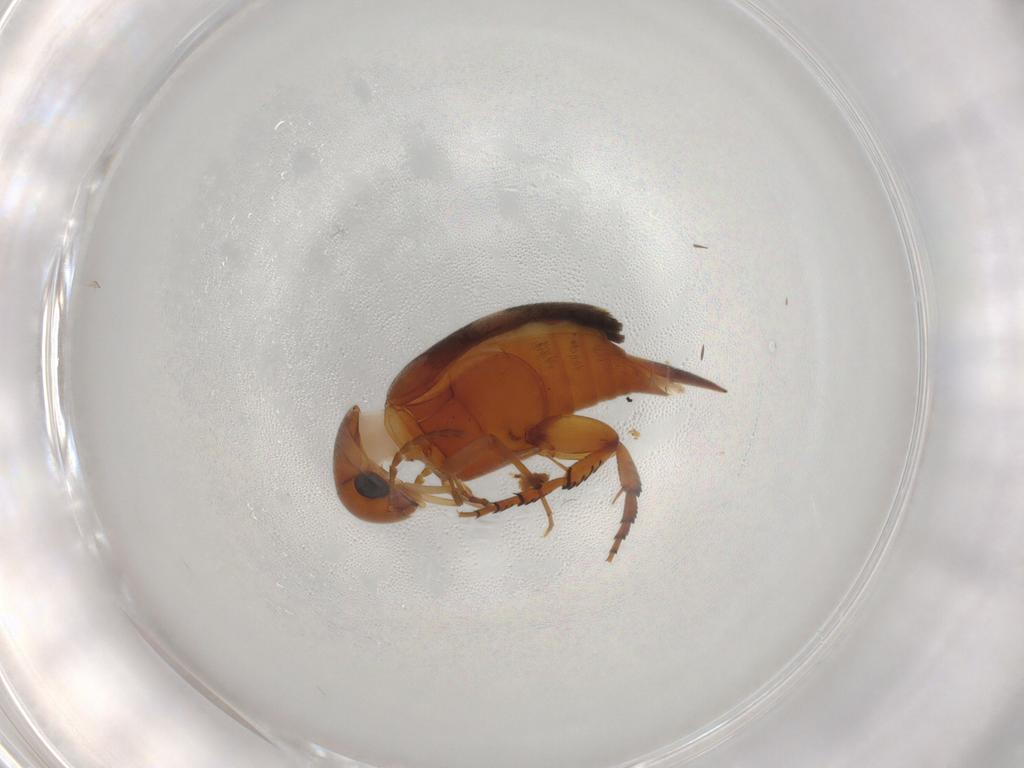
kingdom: Animalia
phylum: Arthropoda
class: Insecta
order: Coleoptera
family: Mordellidae
